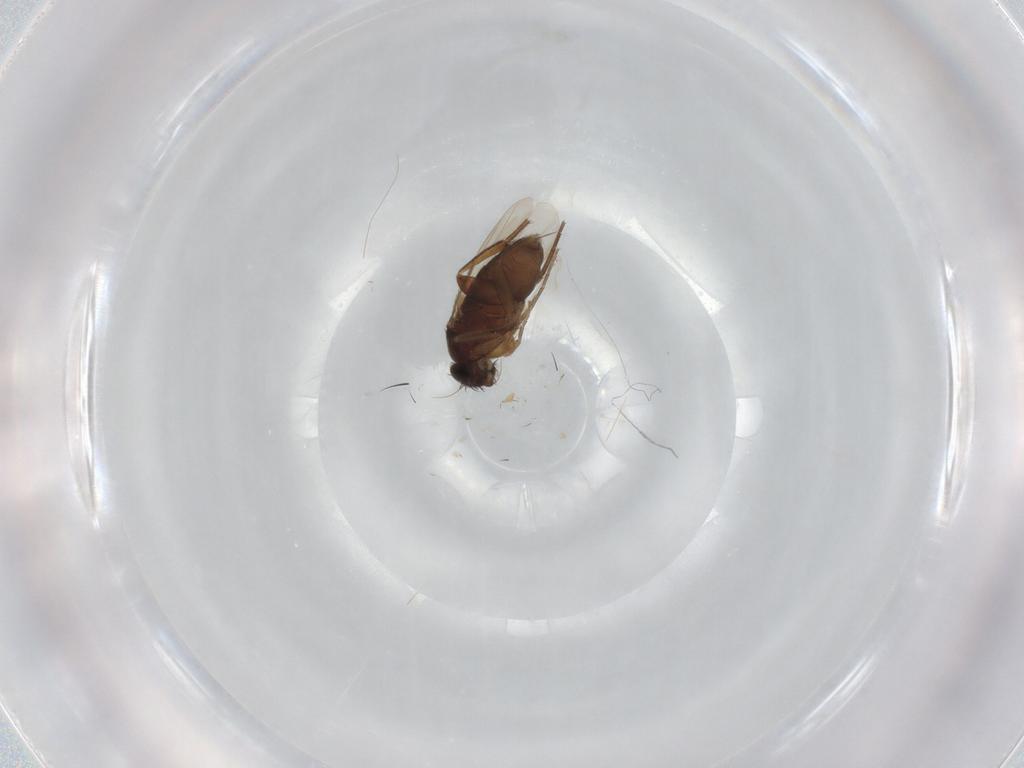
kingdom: Animalia
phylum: Arthropoda
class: Insecta
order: Diptera
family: Phoridae
